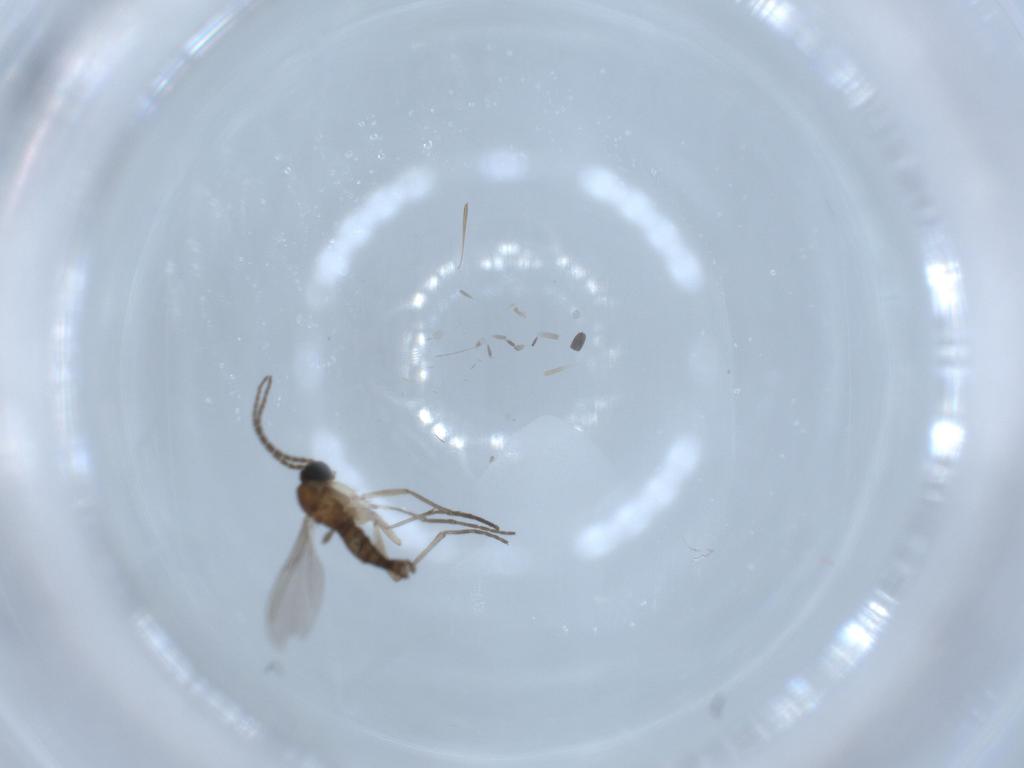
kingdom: Animalia
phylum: Arthropoda
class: Insecta
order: Diptera
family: Sciaridae
